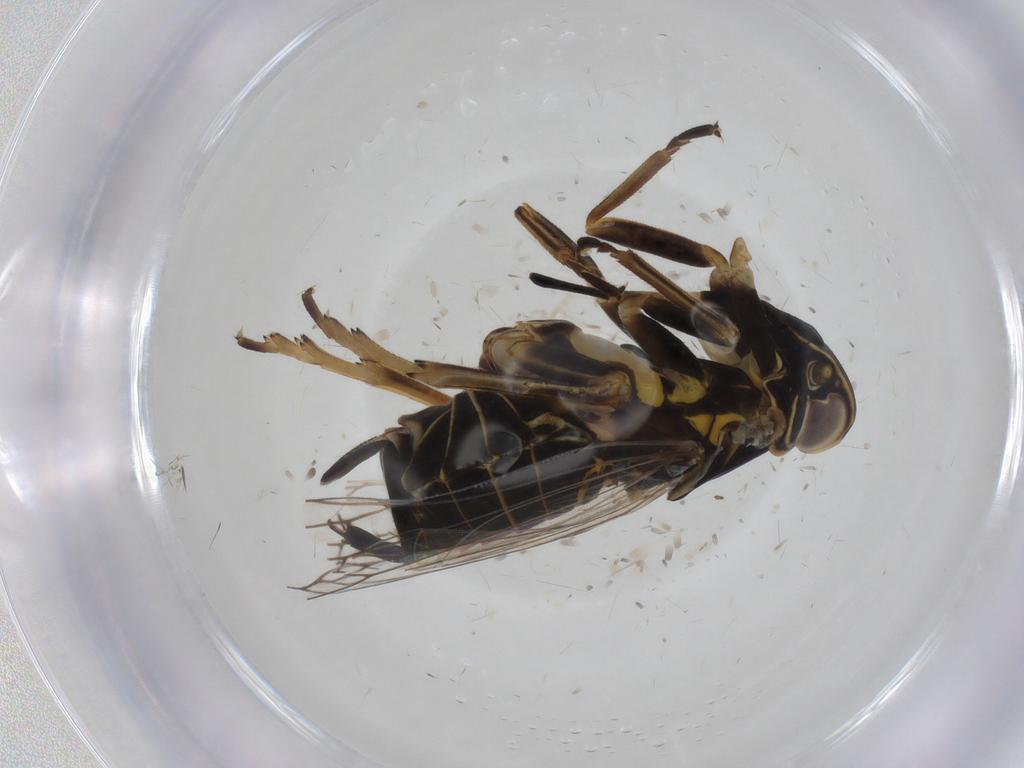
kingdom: Animalia
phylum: Arthropoda
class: Insecta
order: Hemiptera
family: Cixiidae
